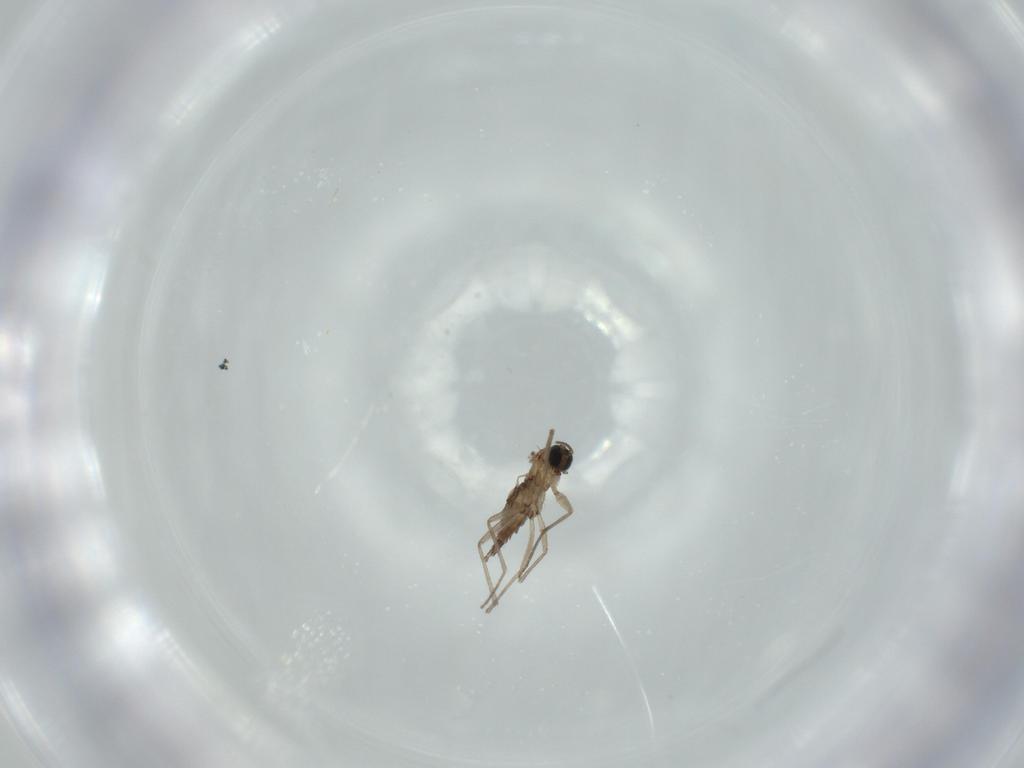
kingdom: Animalia
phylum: Arthropoda
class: Insecta
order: Diptera
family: Sciaridae
